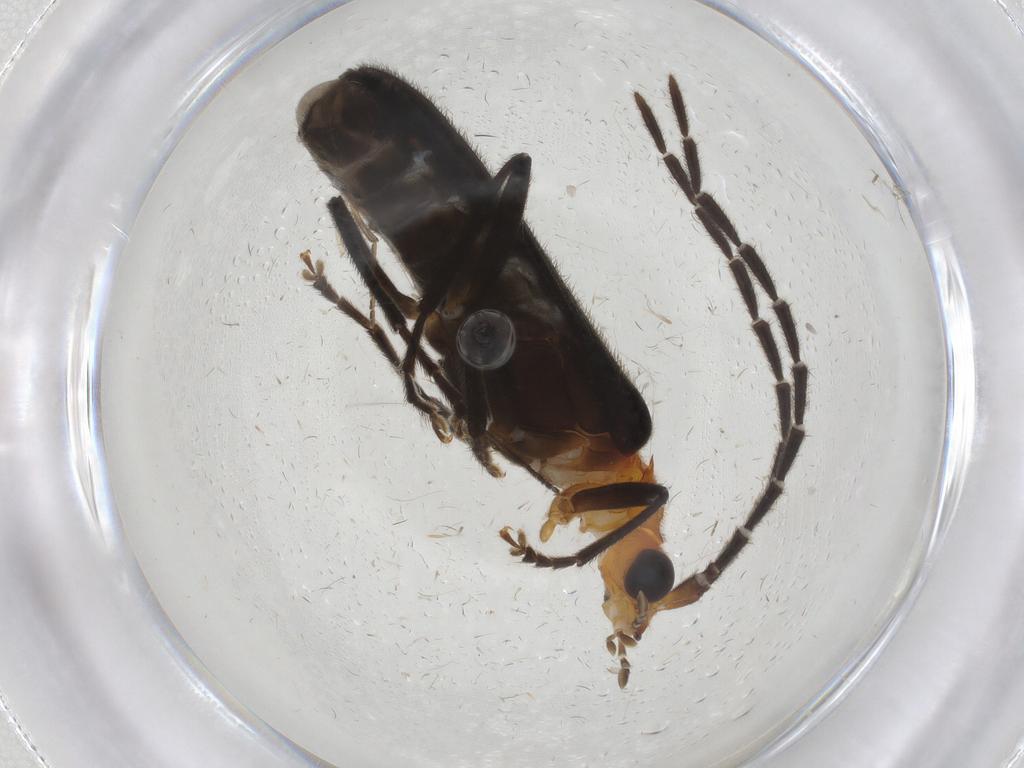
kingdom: Animalia
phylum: Arthropoda
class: Insecta
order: Coleoptera
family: Cantharidae
